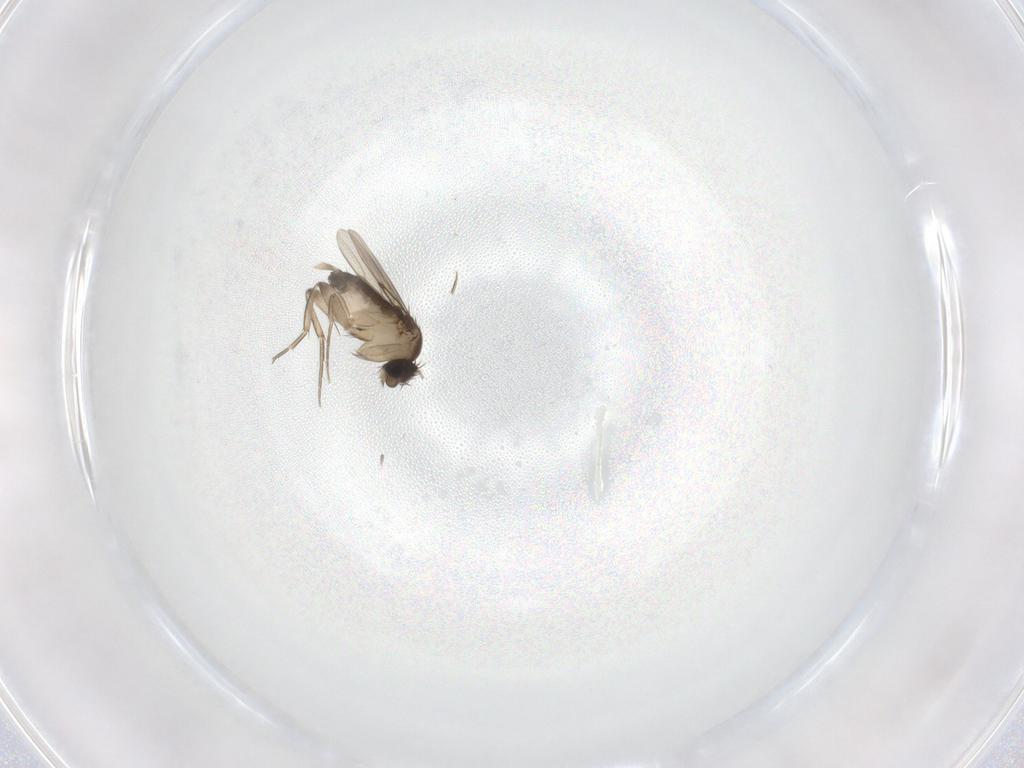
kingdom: Animalia
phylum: Arthropoda
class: Insecta
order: Diptera
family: Phoridae
